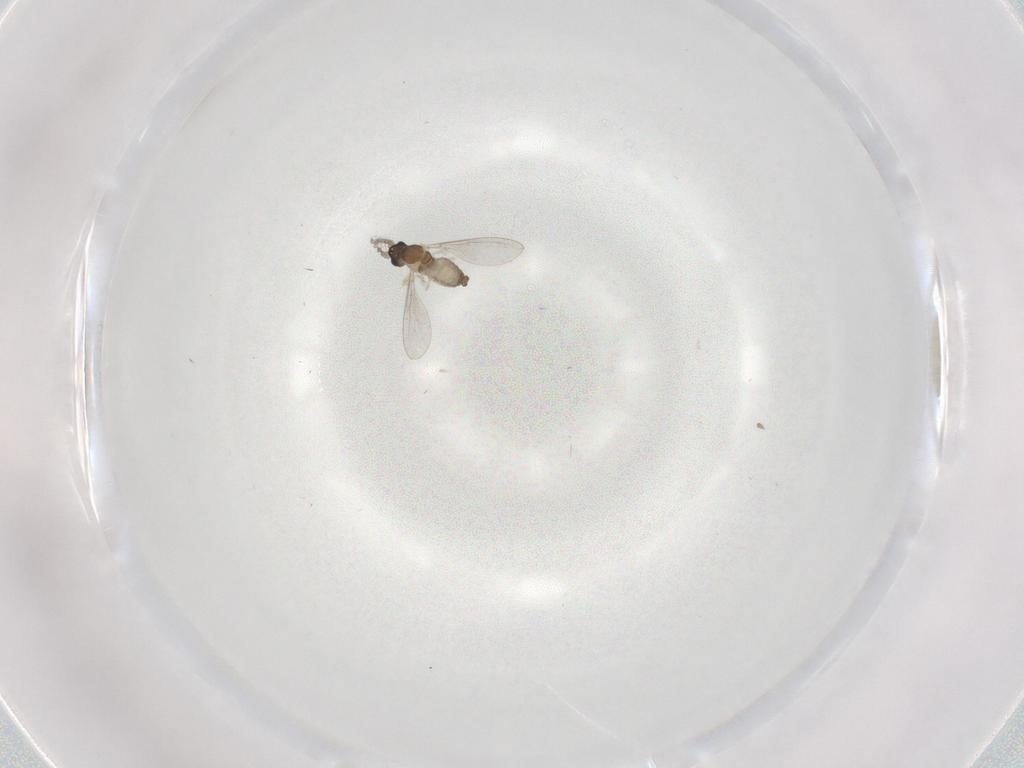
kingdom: Animalia
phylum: Arthropoda
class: Insecta
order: Diptera
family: Cecidomyiidae
